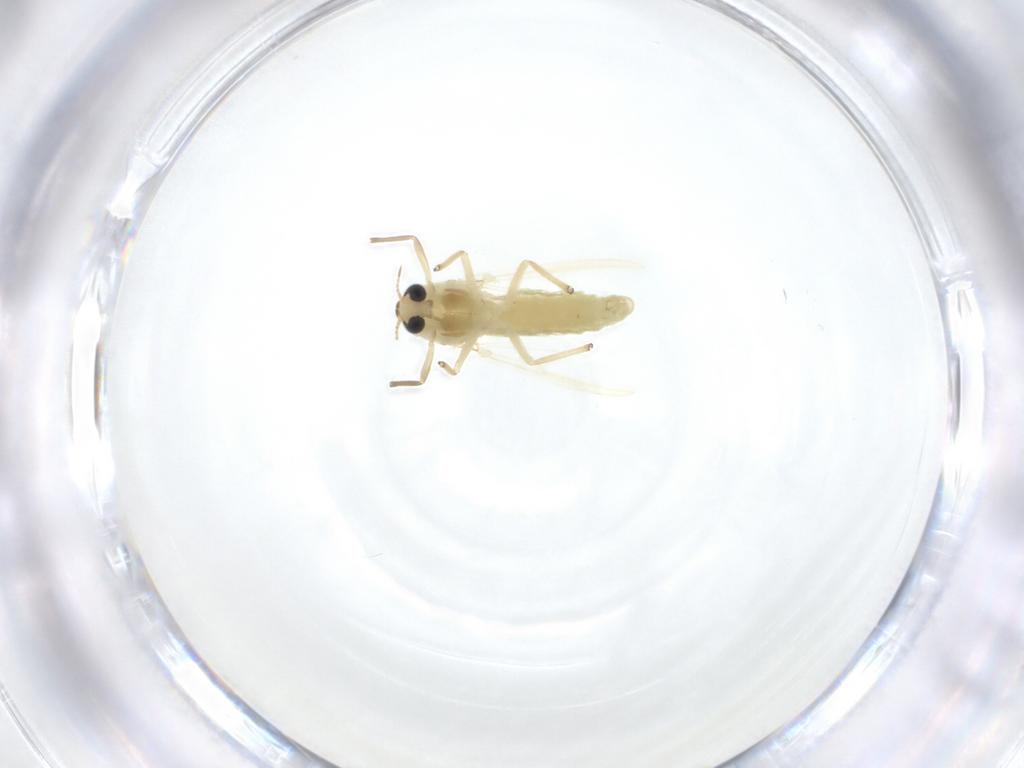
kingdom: Animalia
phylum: Arthropoda
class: Insecta
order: Diptera
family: Chironomidae
